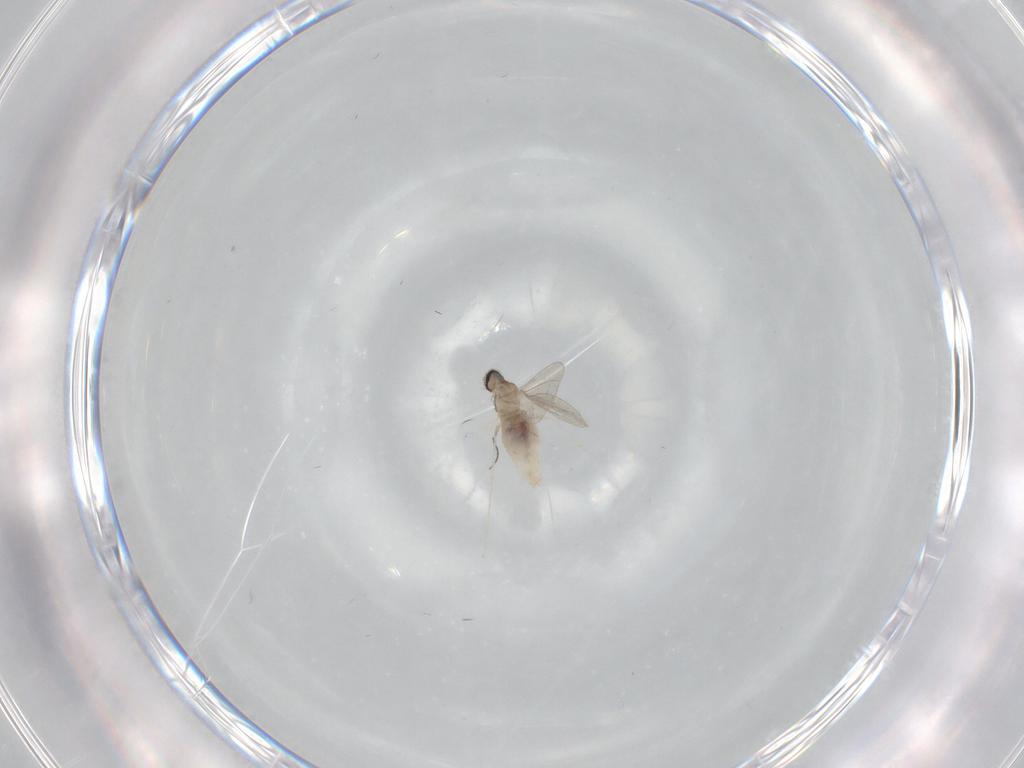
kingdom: Animalia
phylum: Arthropoda
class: Insecta
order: Diptera
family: Cecidomyiidae
